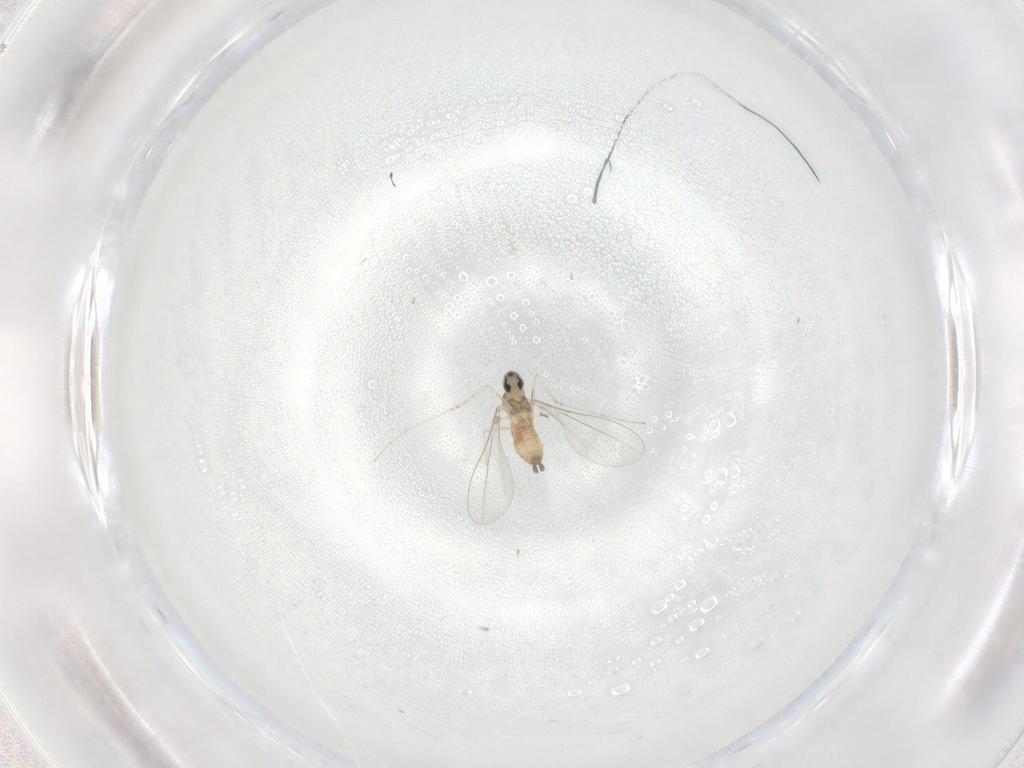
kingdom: Animalia
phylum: Arthropoda
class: Insecta
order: Diptera
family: Cecidomyiidae
